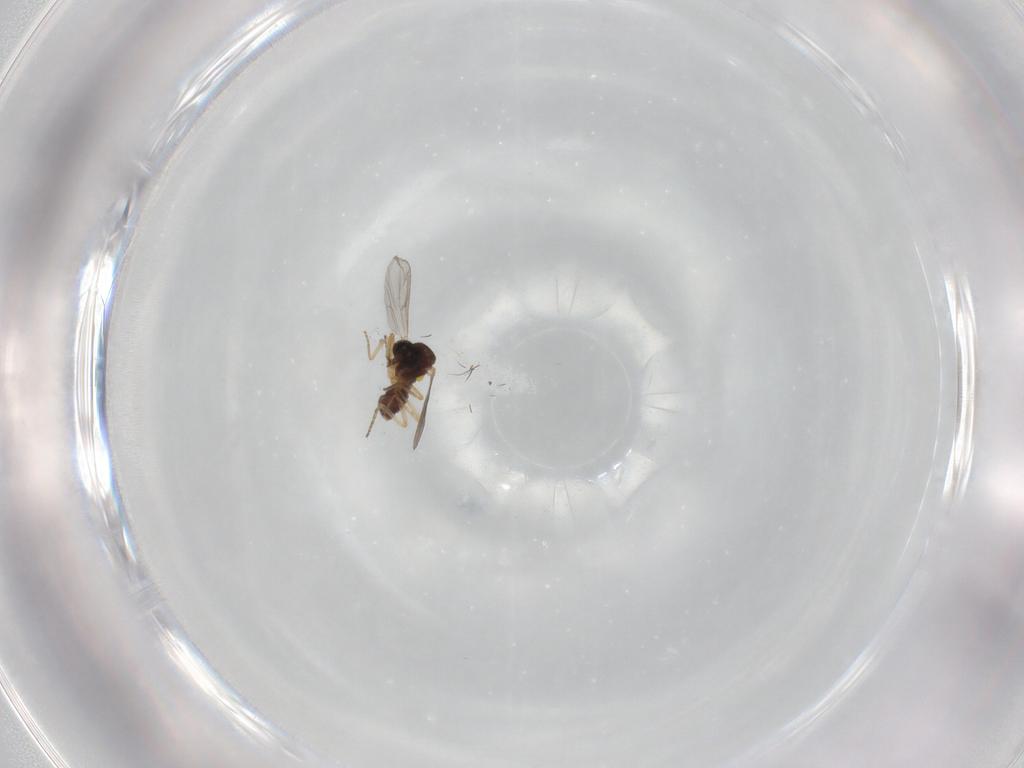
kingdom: Animalia
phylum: Arthropoda
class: Insecta
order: Diptera
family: Ceratopogonidae
